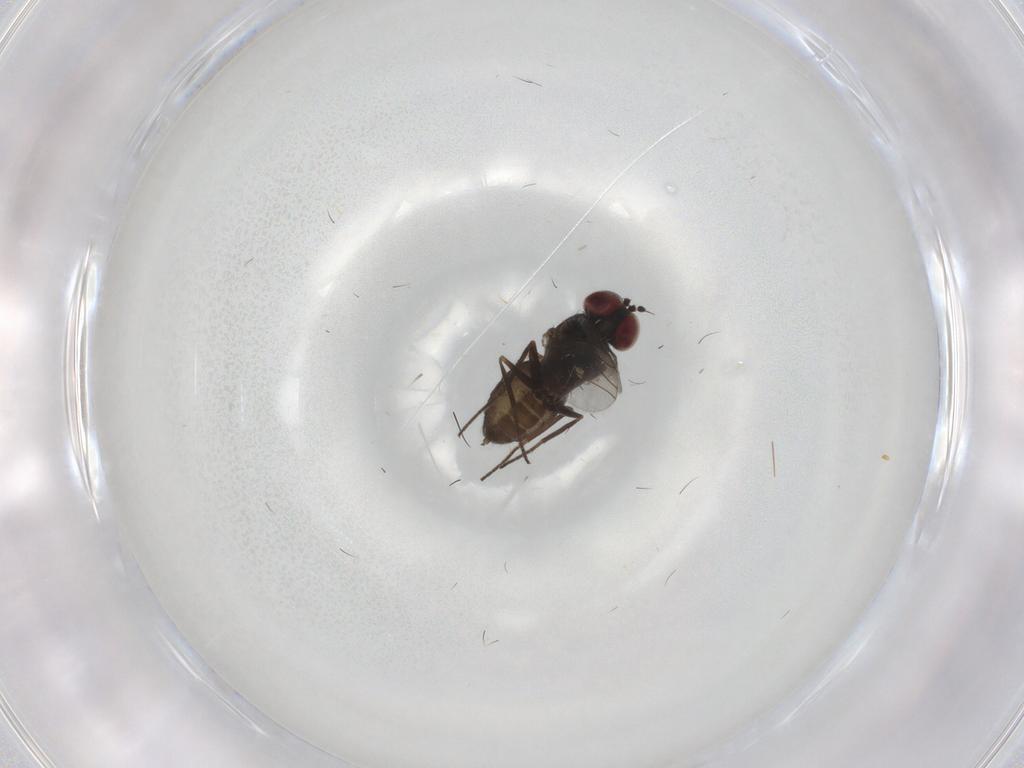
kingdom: Animalia
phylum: Arthropoda
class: Insecta
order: Diptera
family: Dolichopodidae
